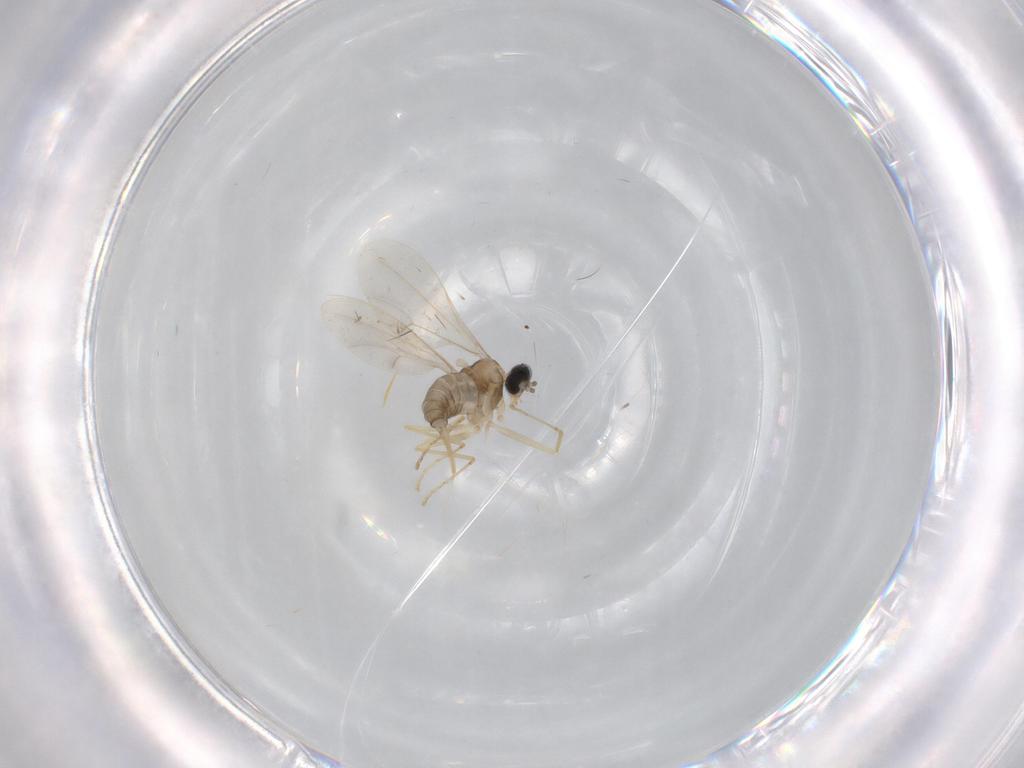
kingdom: Animalia
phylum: Arthropoda
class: Insecta
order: Diptera
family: Cecidomyiidae
